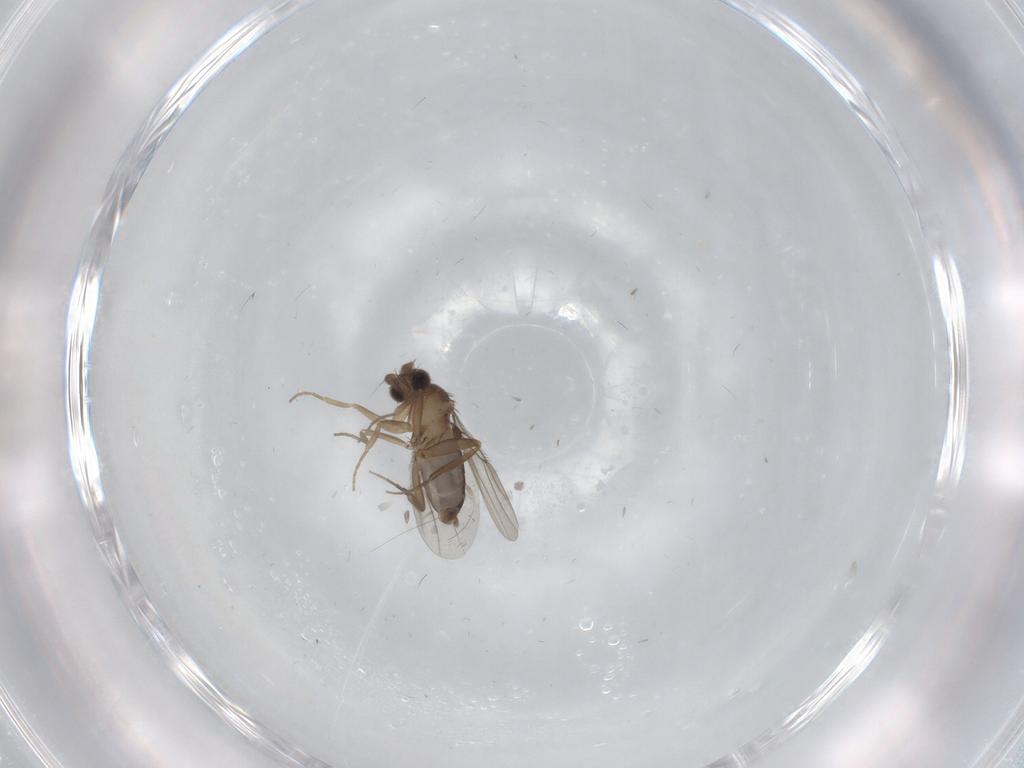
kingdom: Animalia
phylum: Arthropoda
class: Insecta
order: Diptera
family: Phoridae
